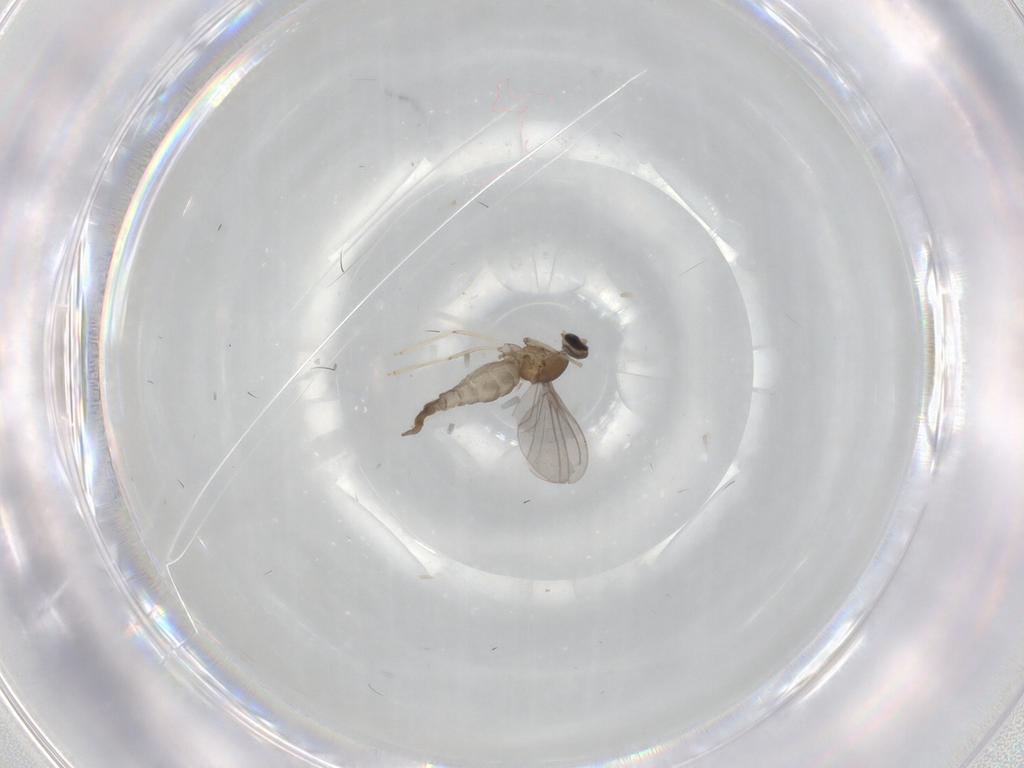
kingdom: Animalia
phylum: Arthropoda
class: Insecta
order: Diptera
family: Cecidomyiidae
